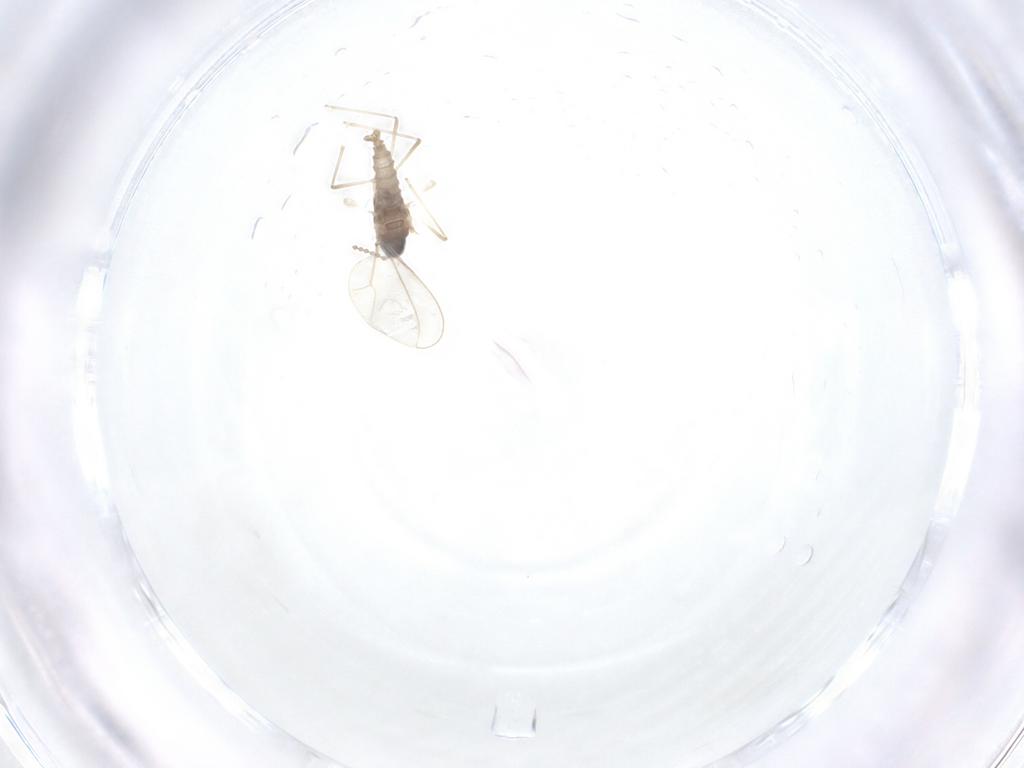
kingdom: Animalia
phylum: Arthropoda
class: Insecta
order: Diptera
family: Cecidomyiidae
